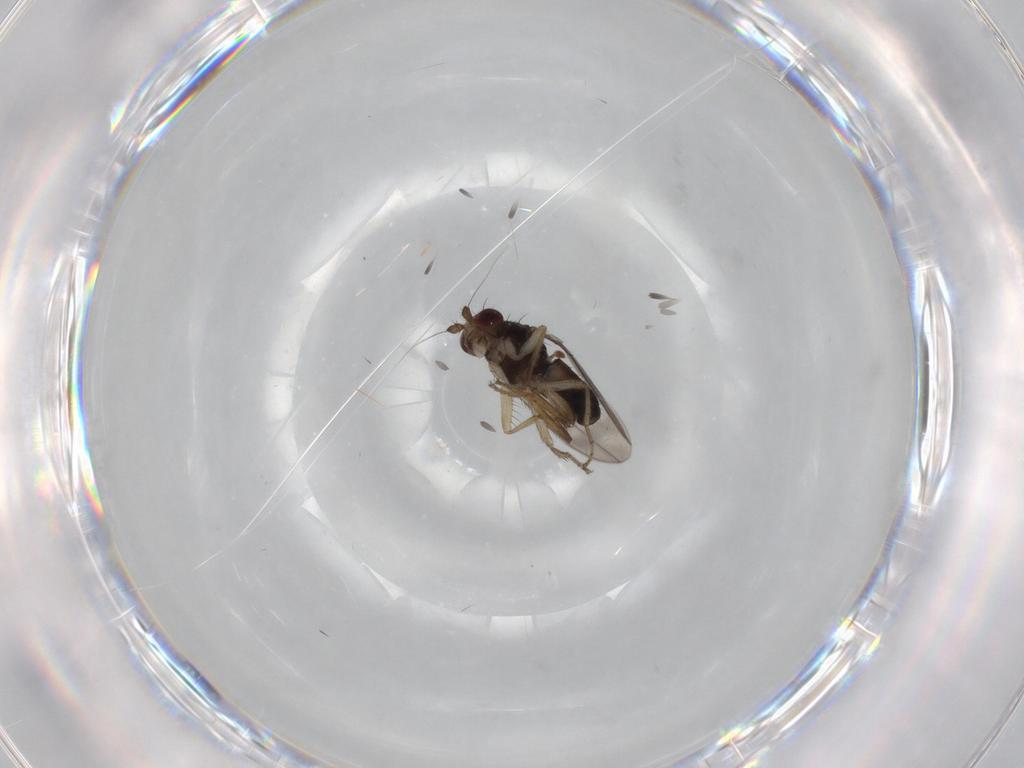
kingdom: Animalia
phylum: Arthropoda
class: Insecta
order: Diptera
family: Sphaeroceridae
